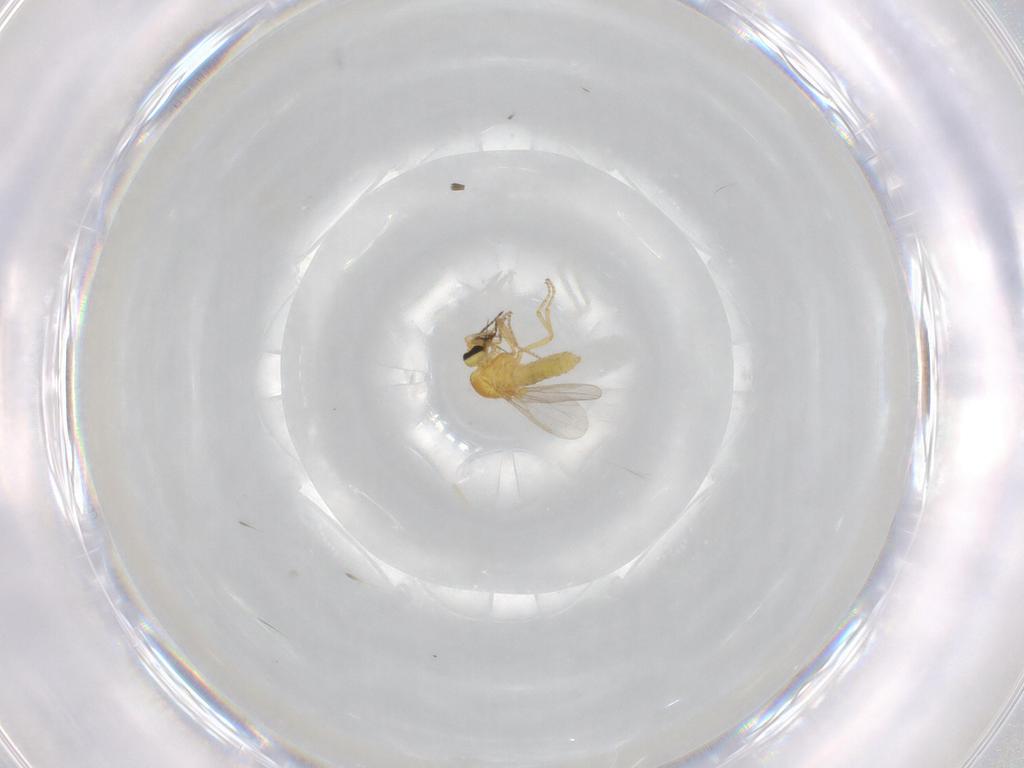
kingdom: Animalia
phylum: Arthropoda
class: Insecta
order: Diptera
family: Ceratopogonidae
